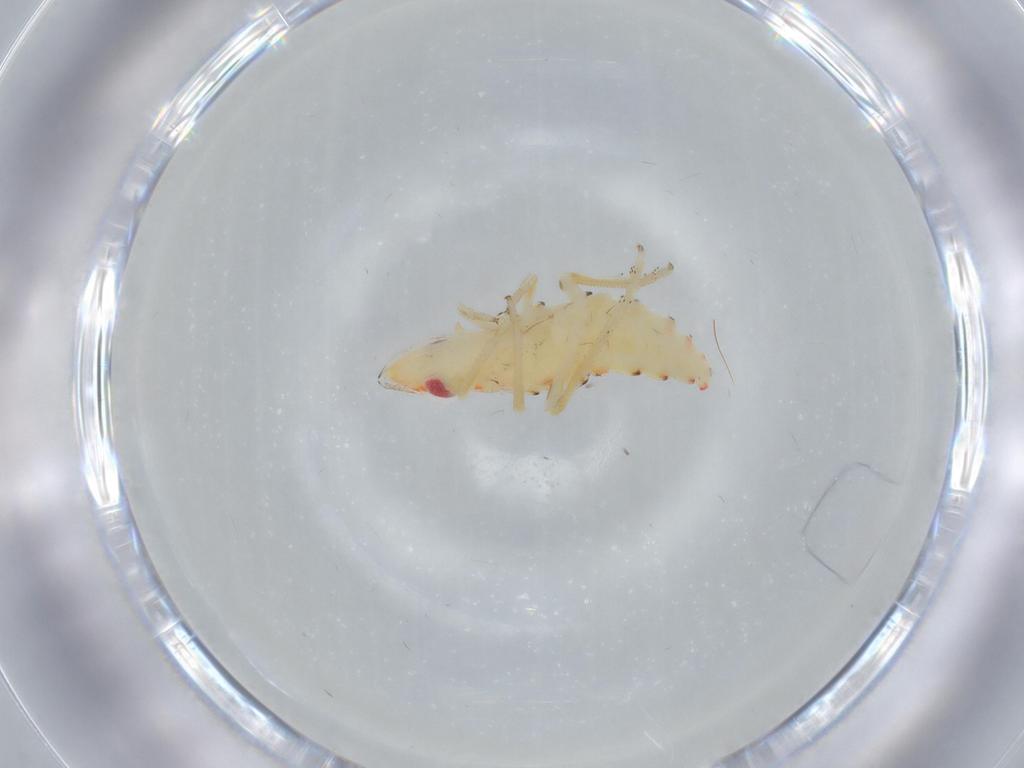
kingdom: Animalia
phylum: Arthropoda
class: Insecta
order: Hemiptera
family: Tropiduchidae
